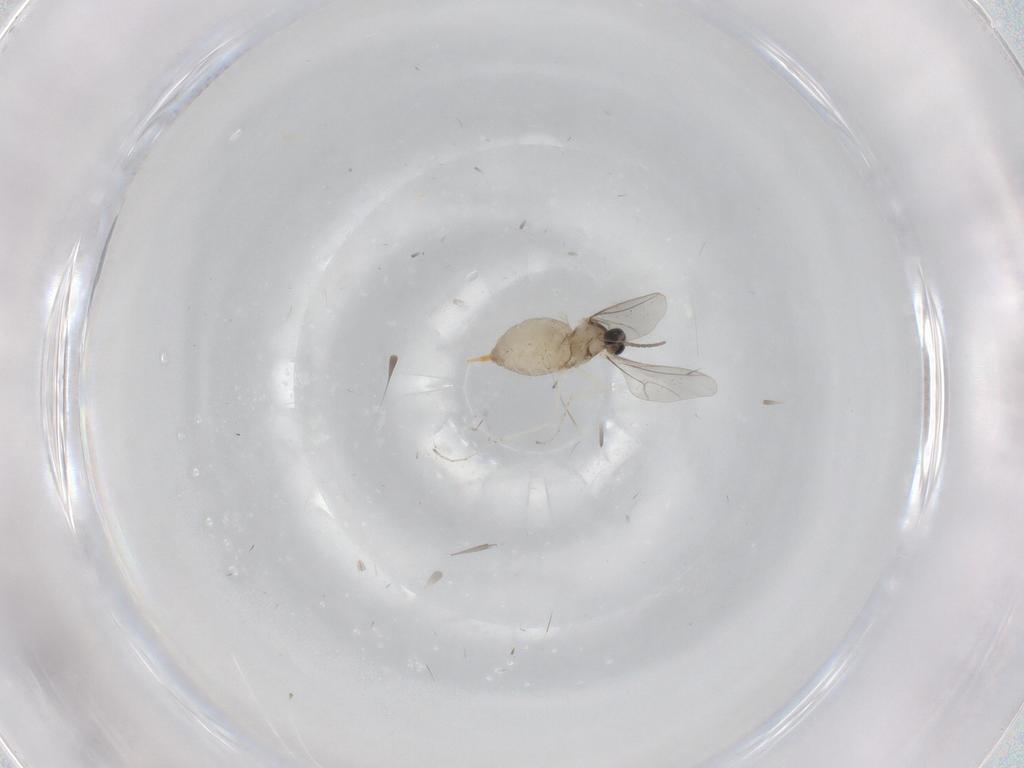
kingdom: Animalia
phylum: Arthropoda
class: Insecta
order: Diptera
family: Cecidomyiidae
